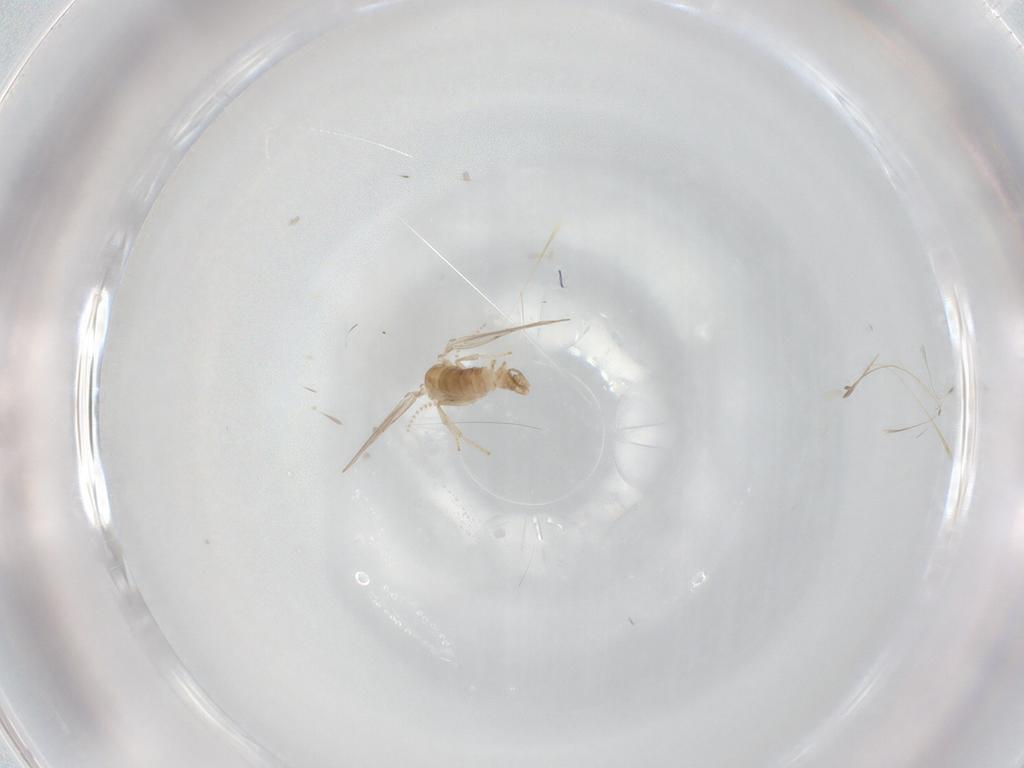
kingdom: Animalia
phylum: Arthropoda
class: Insecta
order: Diptera
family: Psychodidae
